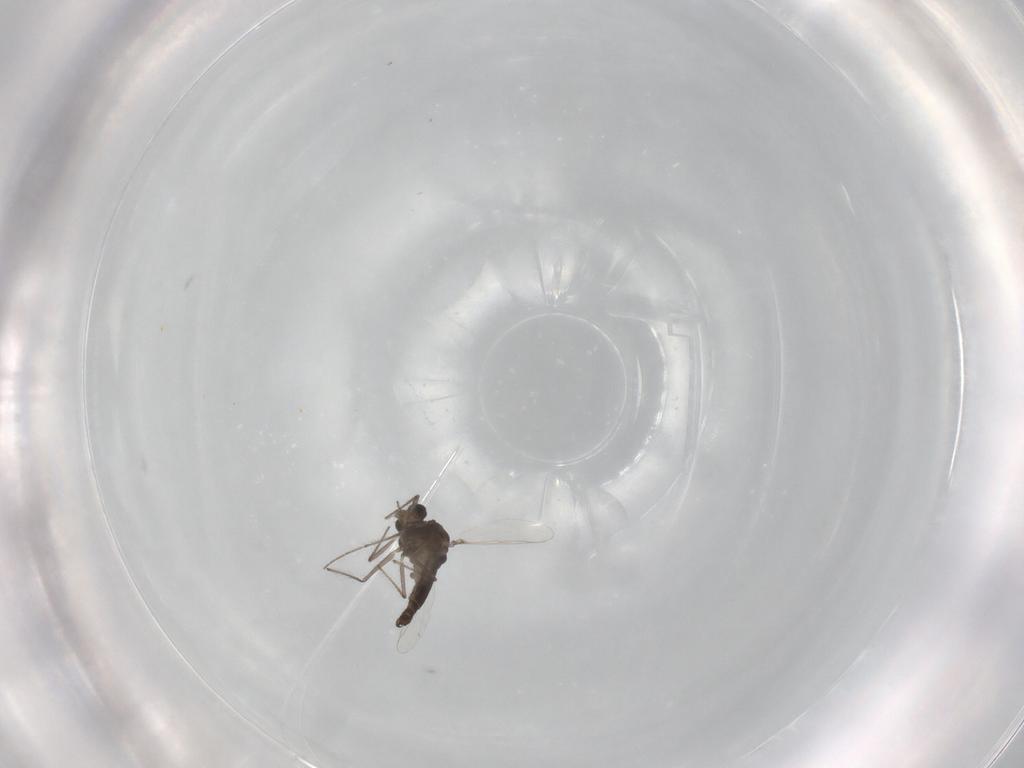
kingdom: Animalia
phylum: Arthropoda
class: Insecta
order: Diptera
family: Chironomidae
